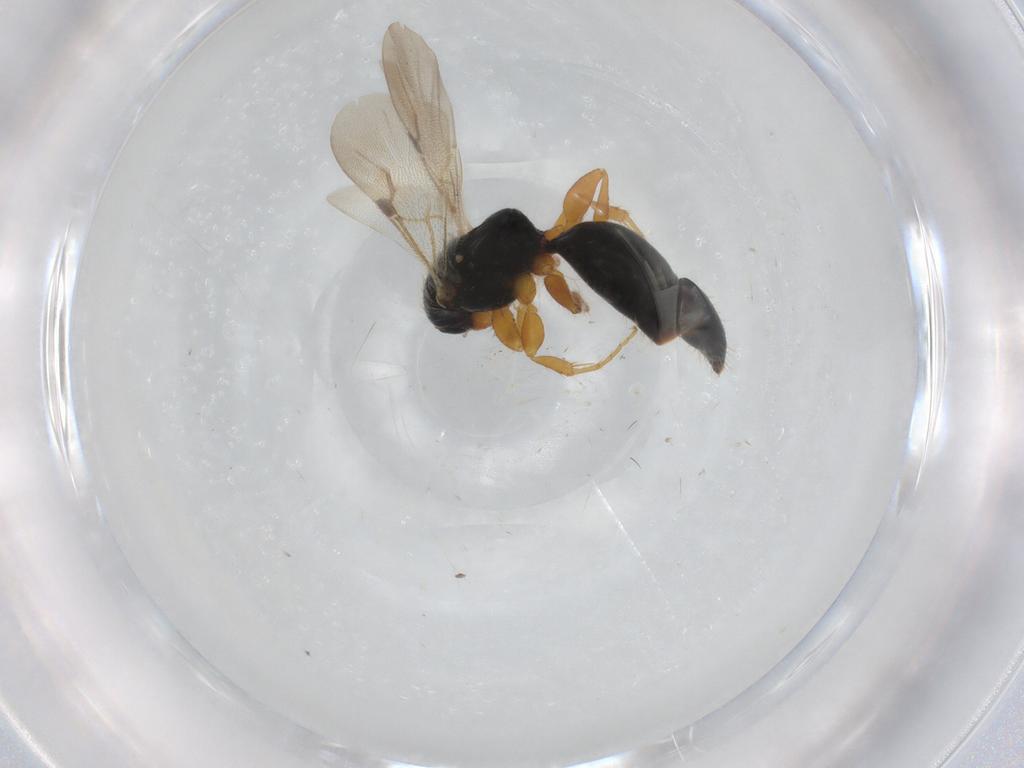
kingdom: Animalia
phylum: Arthropoda
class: Insecta
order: Hymenoptera
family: Bethylidae
